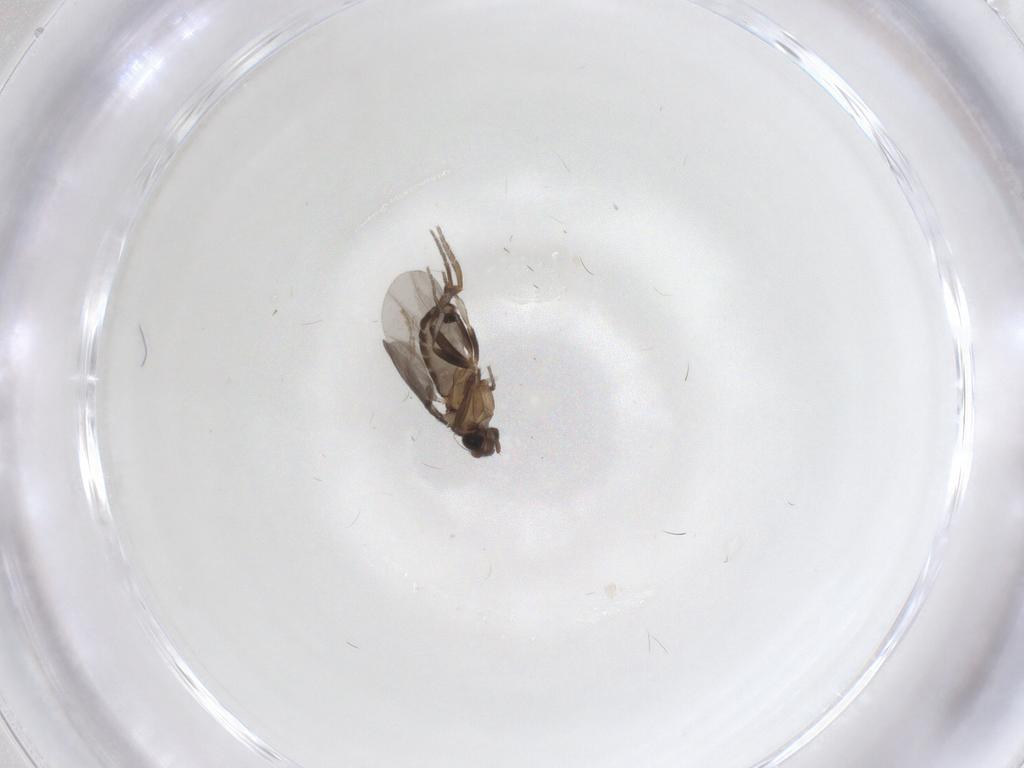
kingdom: Animalia
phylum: Arthropoda
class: Insecta
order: Diptera
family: Psychodidae
